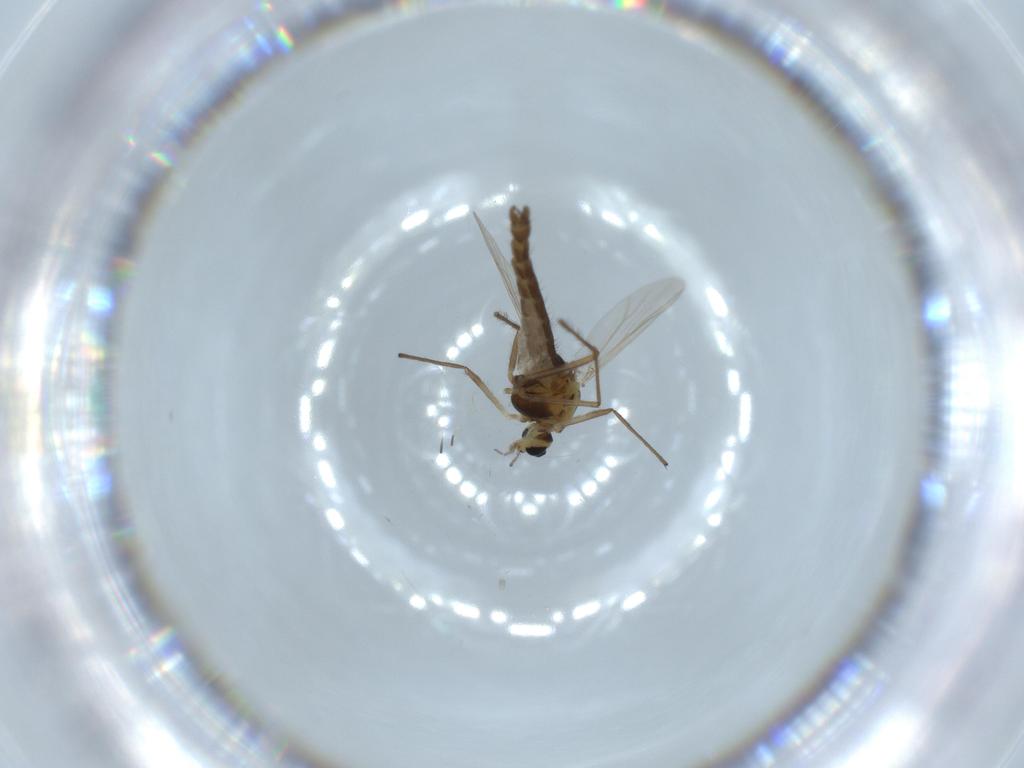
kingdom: Animalia
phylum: Arthropoda
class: Insecta
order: Diptera
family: Chironomidae
